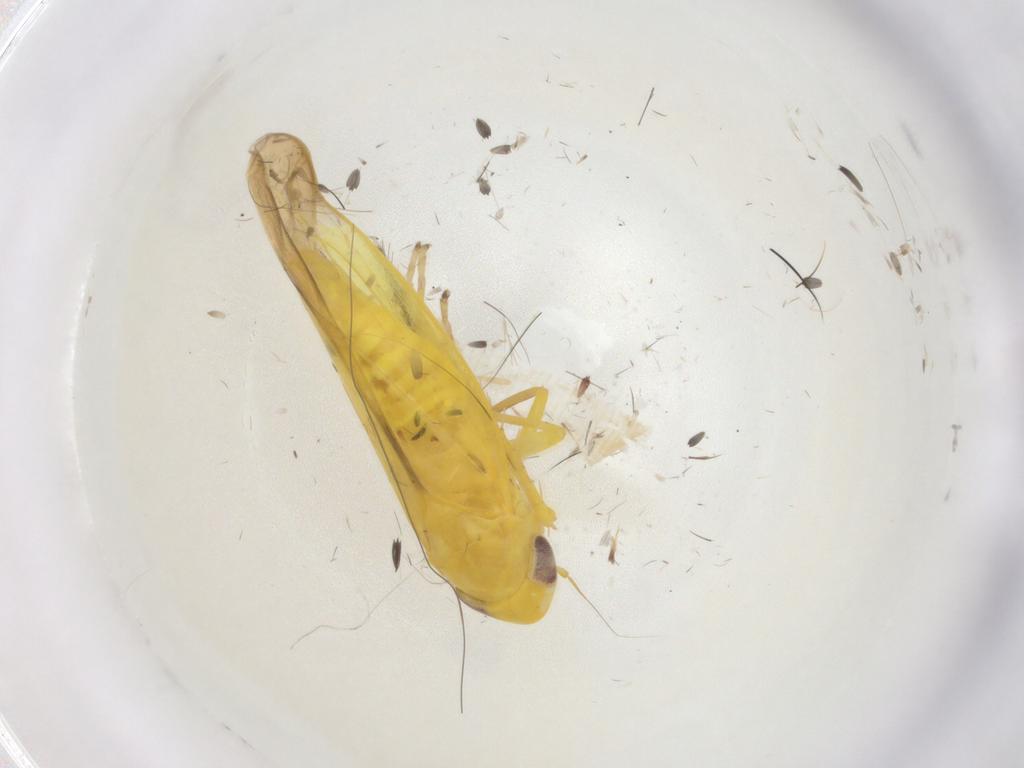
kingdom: Animalia
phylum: Arthropoda
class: Insecta
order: Hemiptera
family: Cicadellidae
